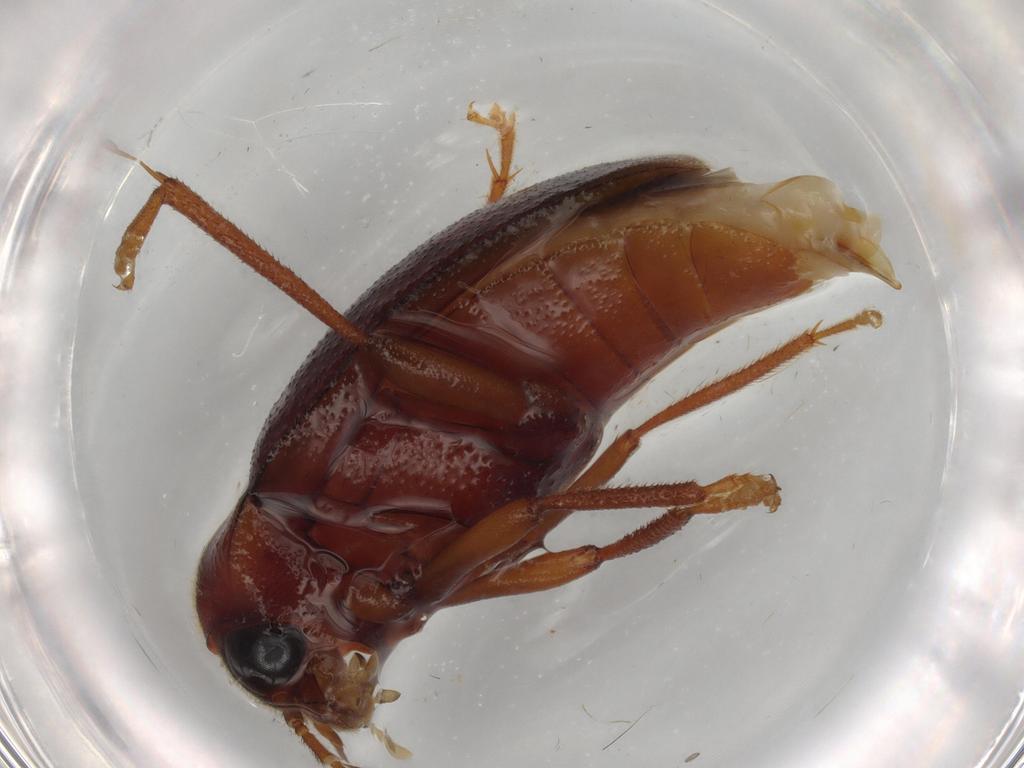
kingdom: Animalia
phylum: Arthropoda
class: Insecta
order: Coleoptera
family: Ptilodactylidae
